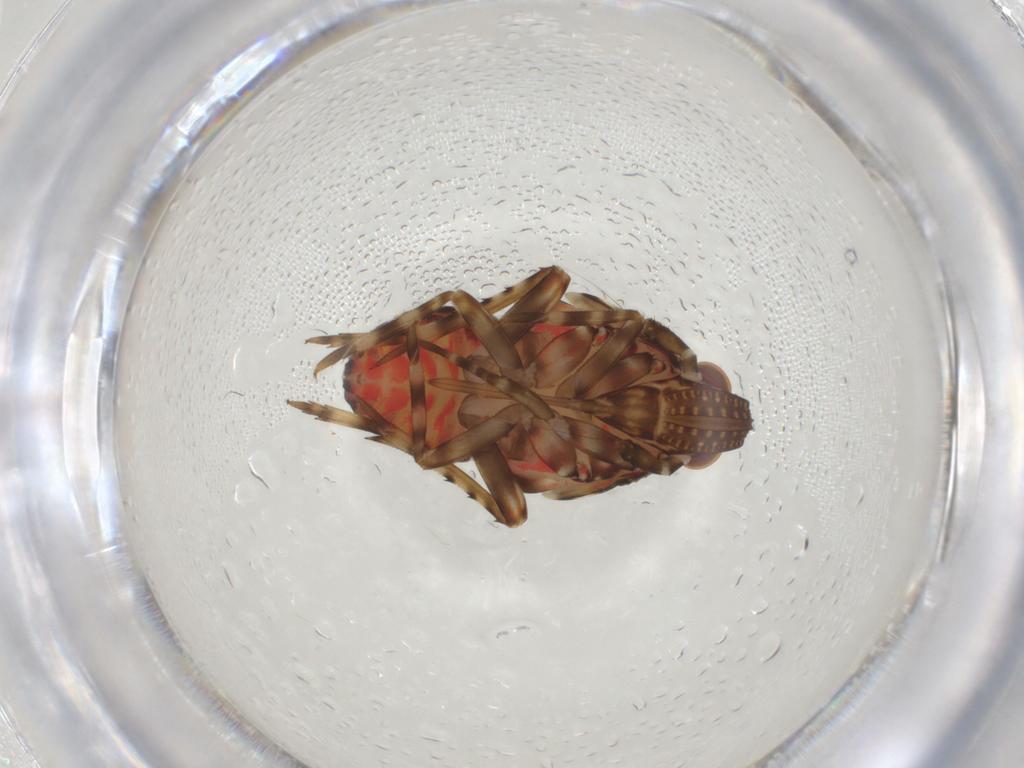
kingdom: Animalia
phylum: Arthropoda
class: Insecta
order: Hemiptera
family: Delphacidae
